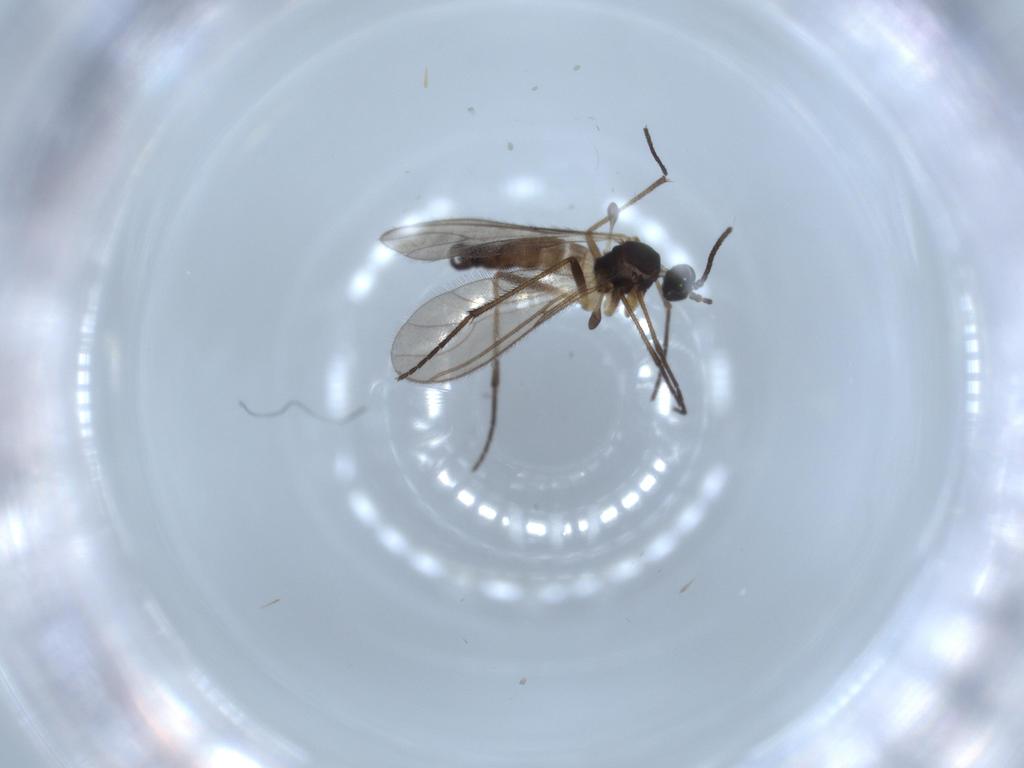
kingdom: Animalia
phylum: Arthropoda
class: Insecta
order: Diptera
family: Sciaridae
